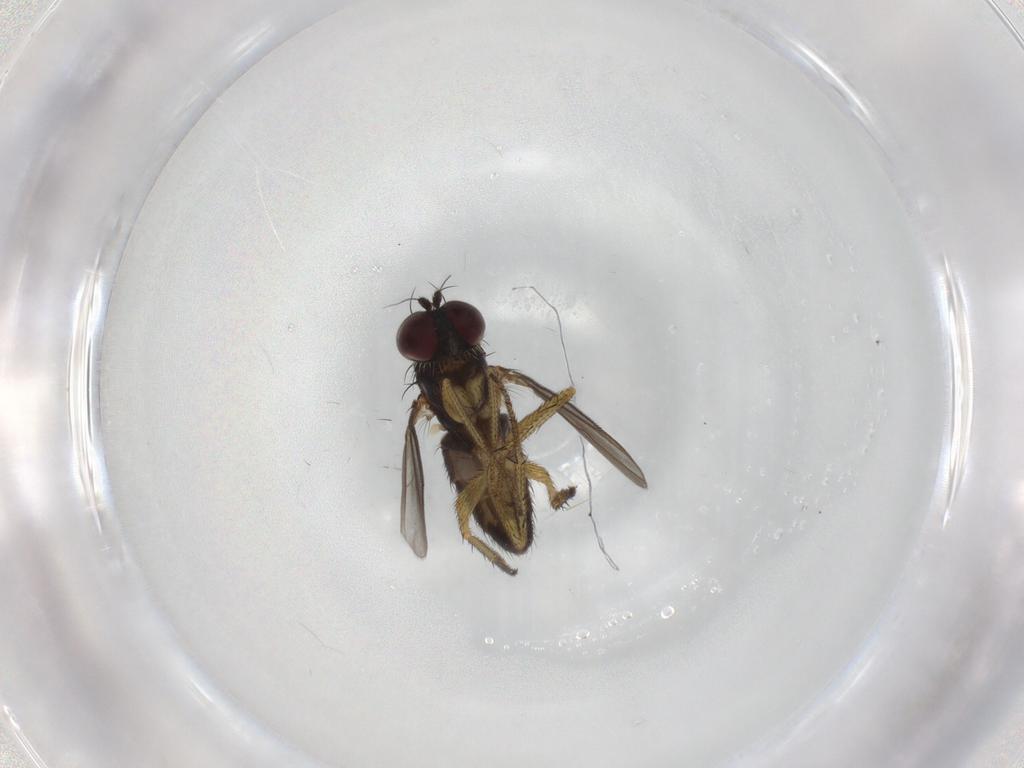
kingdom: Animalia
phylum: Arthropoda
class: Insecta
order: Diptera
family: Dolichopodidae
